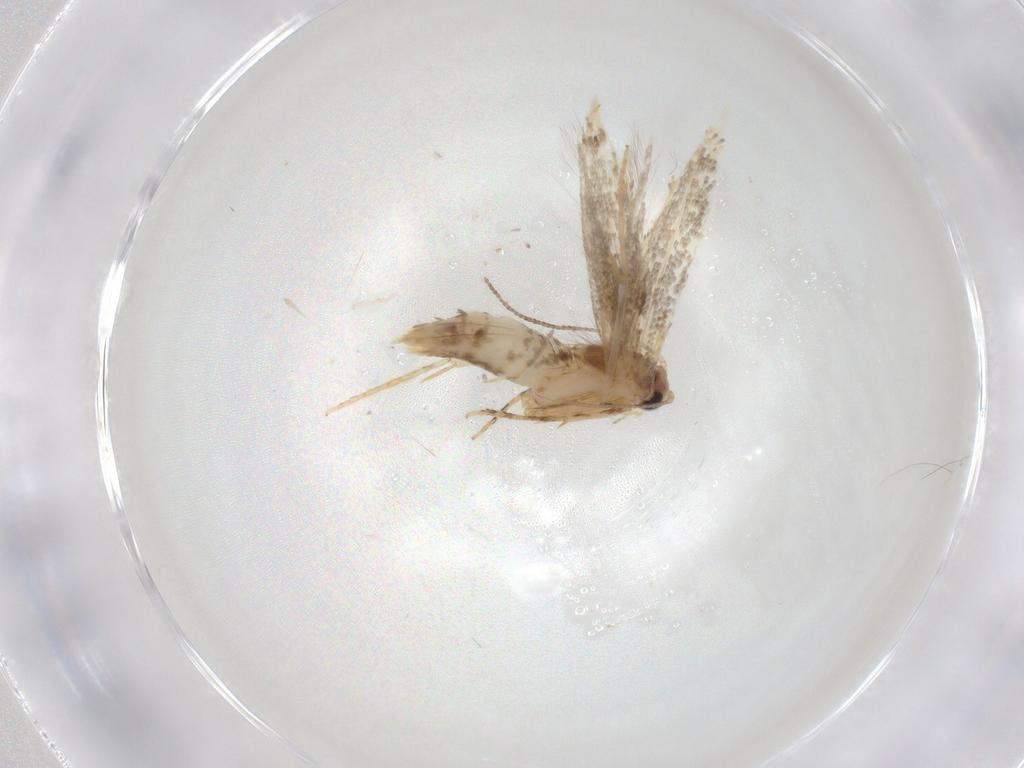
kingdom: Animalia
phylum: Arthropoda
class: Insecta
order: Lepidoptera
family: Tineidae
